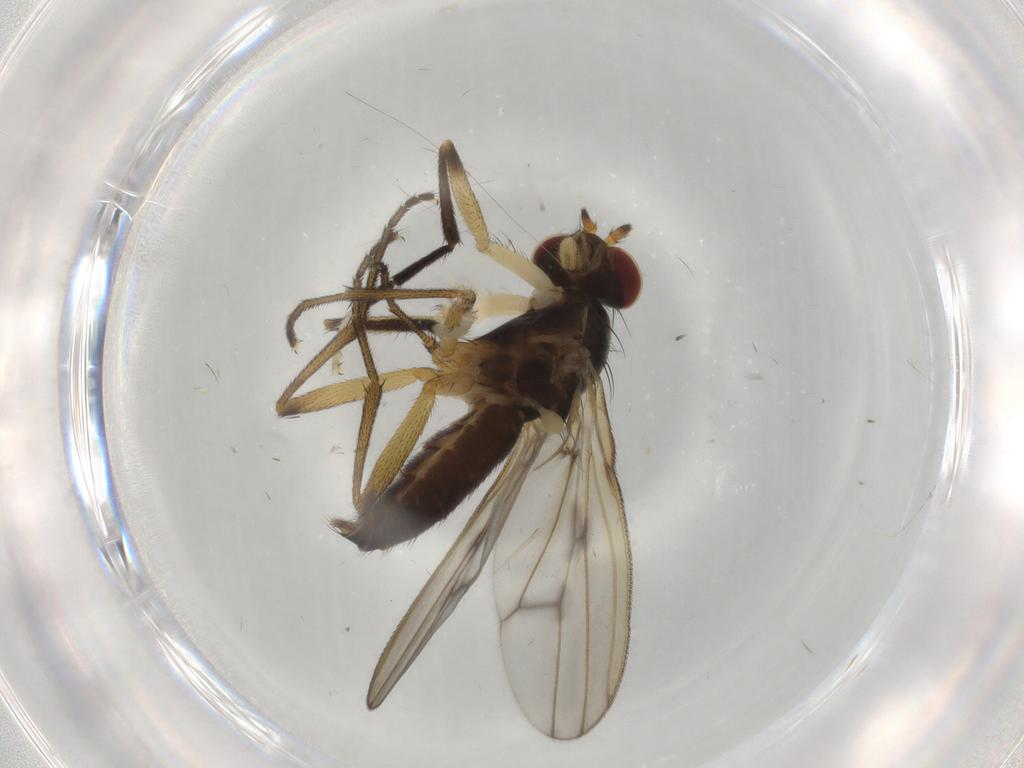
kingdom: Animalia
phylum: Arthropoda
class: Insecta
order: Diptera
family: Sciomyzidae
